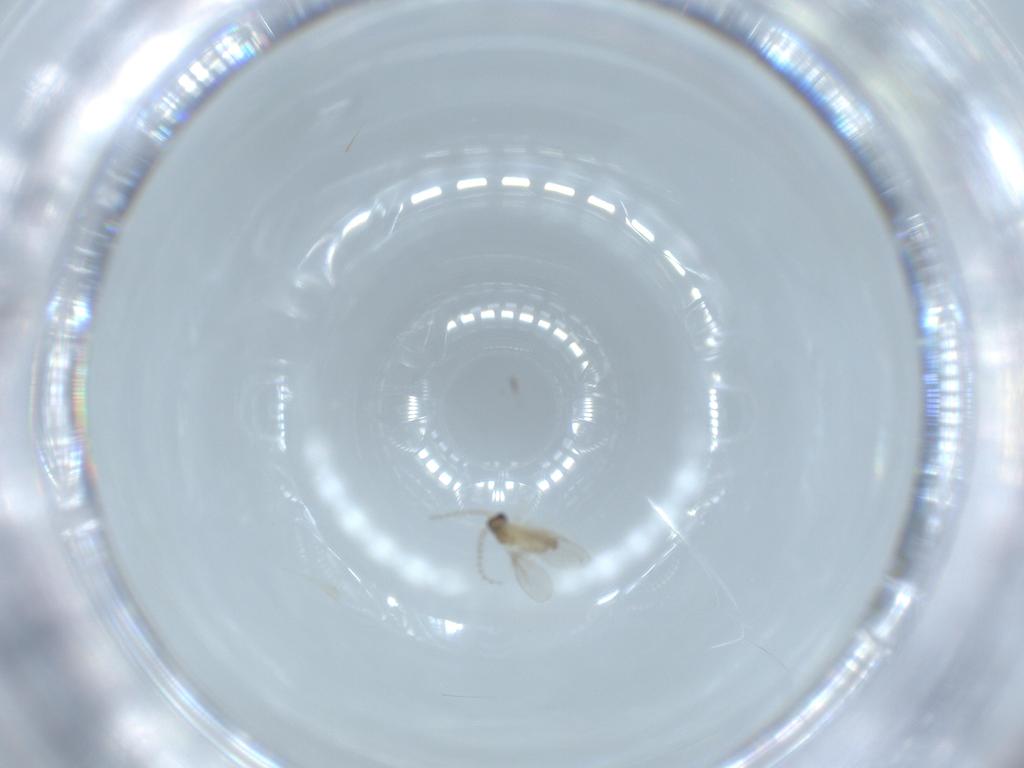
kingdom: Animalia
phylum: Arthropoda
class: Insecta
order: Diptera
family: Cecidomyiidae
